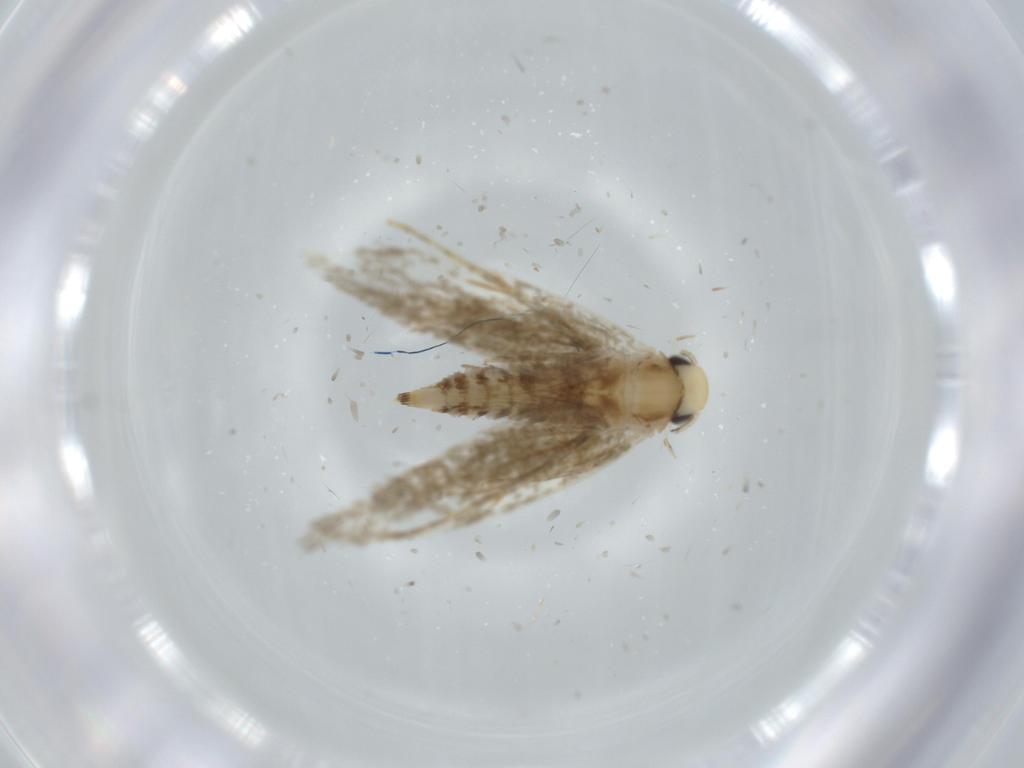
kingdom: Animalia
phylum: Arthropoda
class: Insecta
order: Lepidoptera
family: Tineidae
